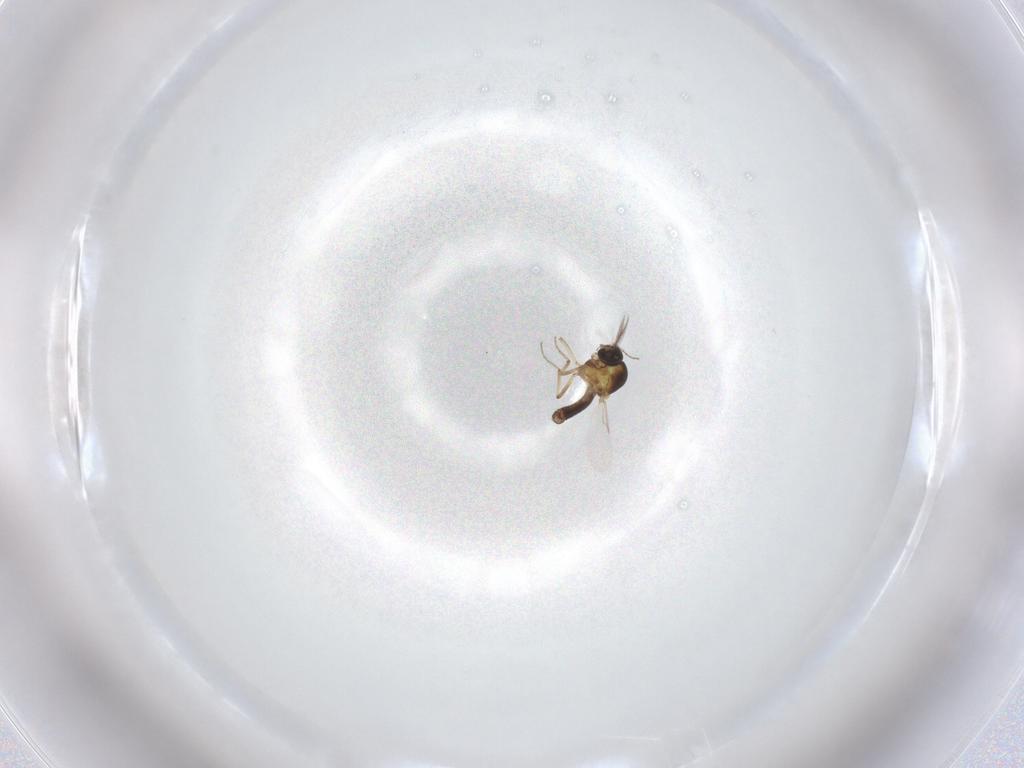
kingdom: Animalia
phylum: Arthropoda
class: Insecta
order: Diptera
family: Ceratopogonidae
